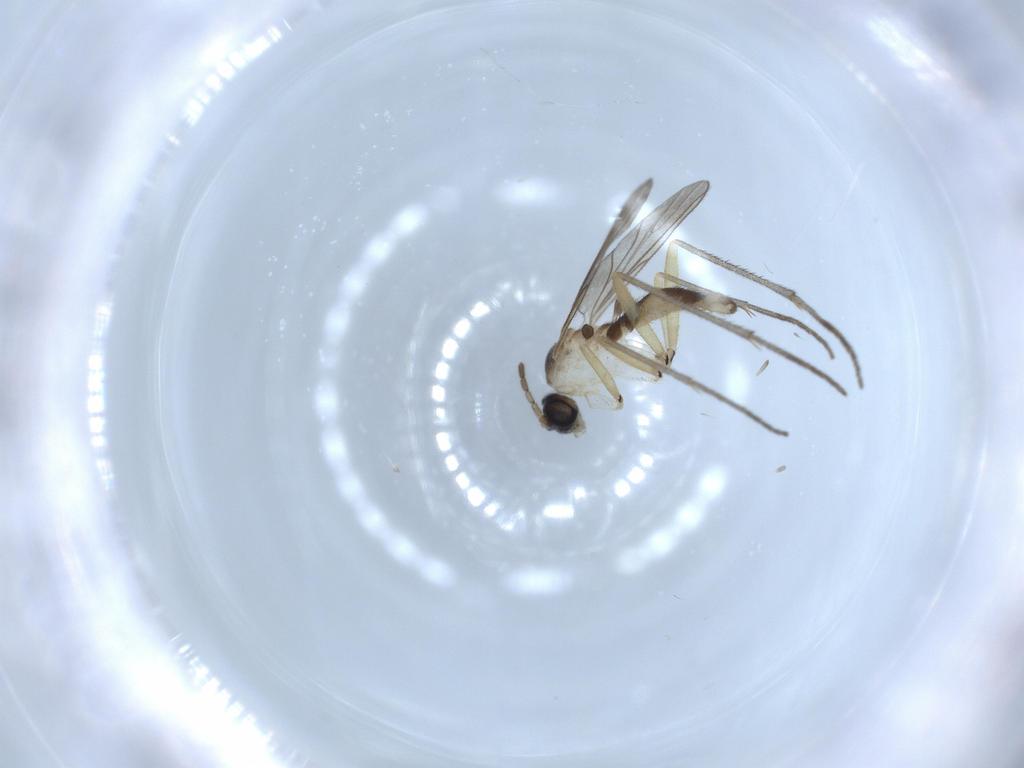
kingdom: Animalia
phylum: Arthropoda
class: Insecta
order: Diptera
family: Sciaridae
